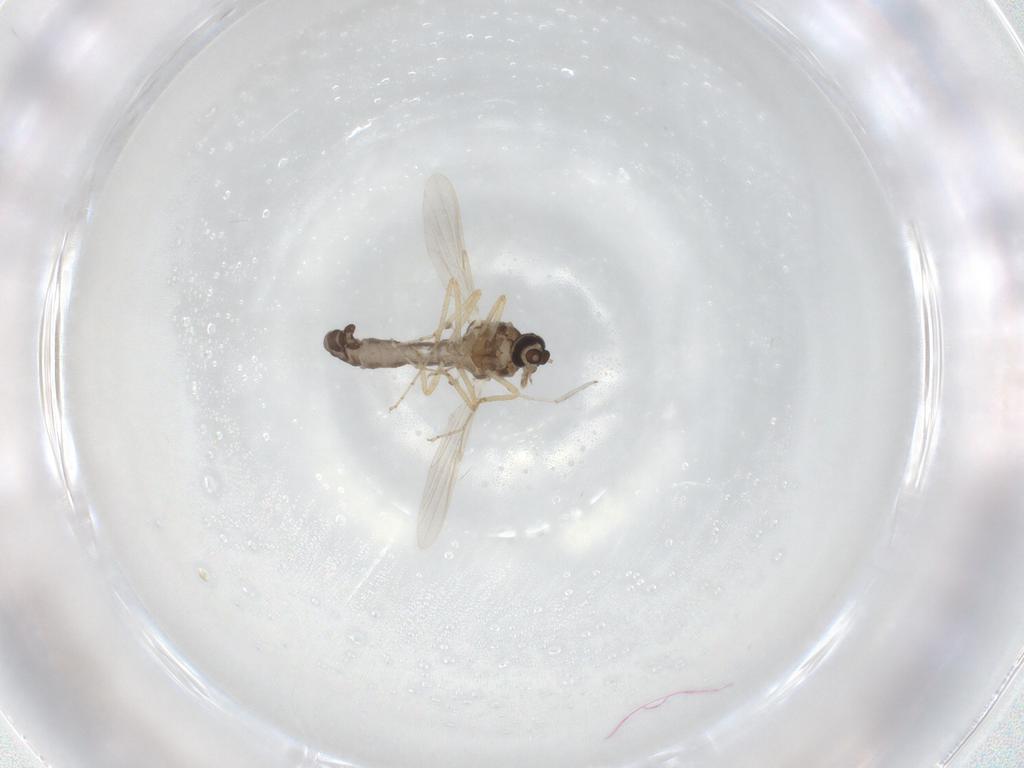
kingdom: Animalia
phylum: Arthropoda
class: Insecta
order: Diptera
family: Ceratopogonidae
